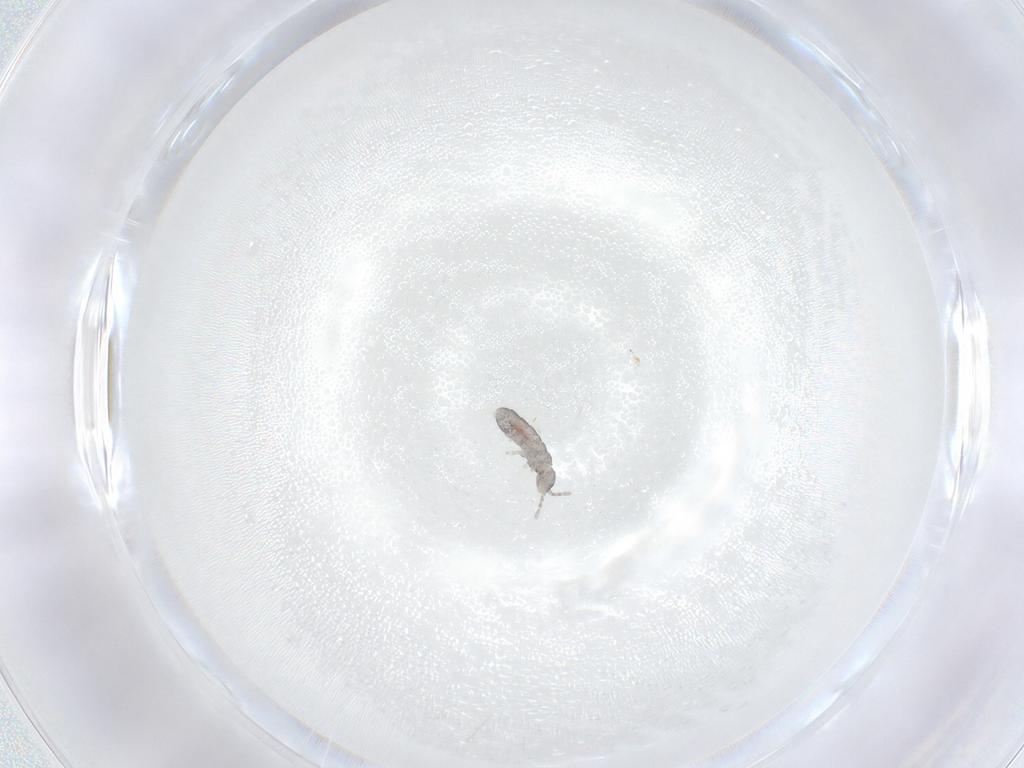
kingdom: Animalia
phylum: Arthropoda
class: Collembola
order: Entomobryomorpha
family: Isotomidae
